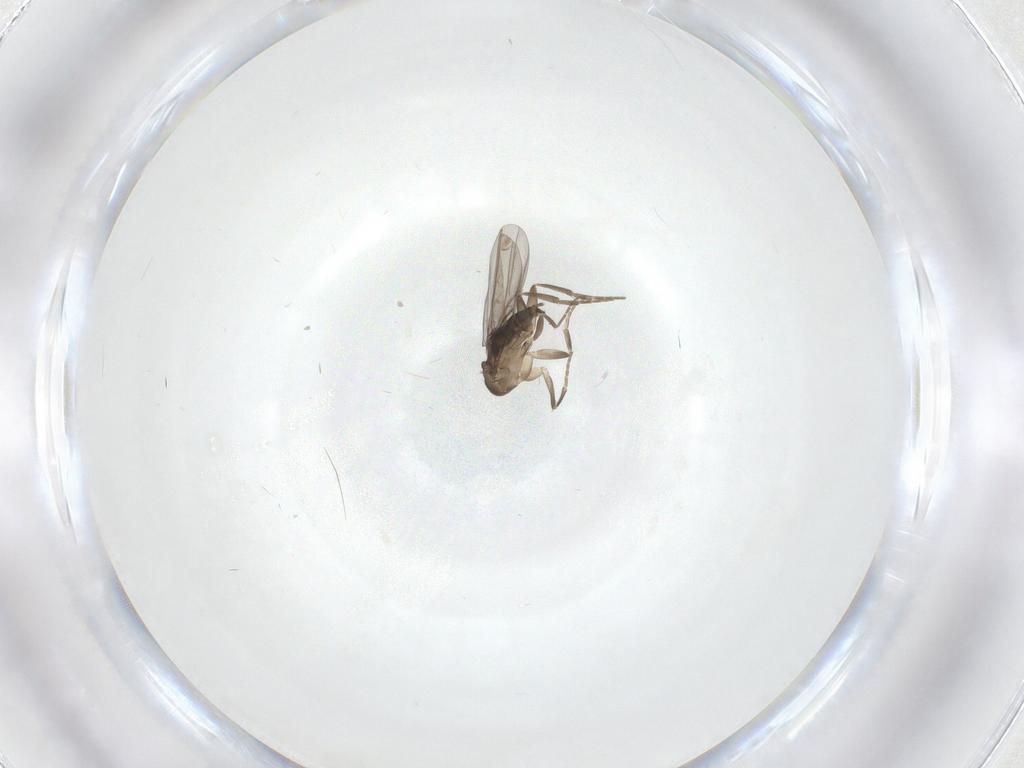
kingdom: Animalia
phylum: Arthropoda
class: Insecta
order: Diptera
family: Phoridae
